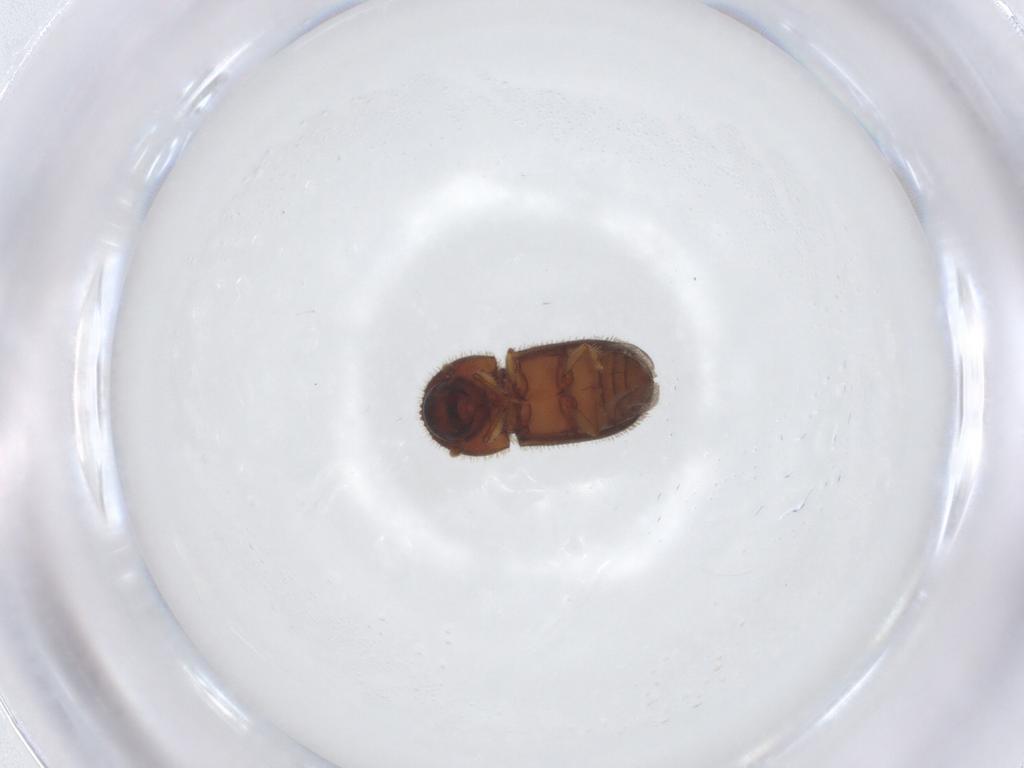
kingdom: Animalia
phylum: Arthropoda
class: Insecta
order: Coleoptera
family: Curculionidae
